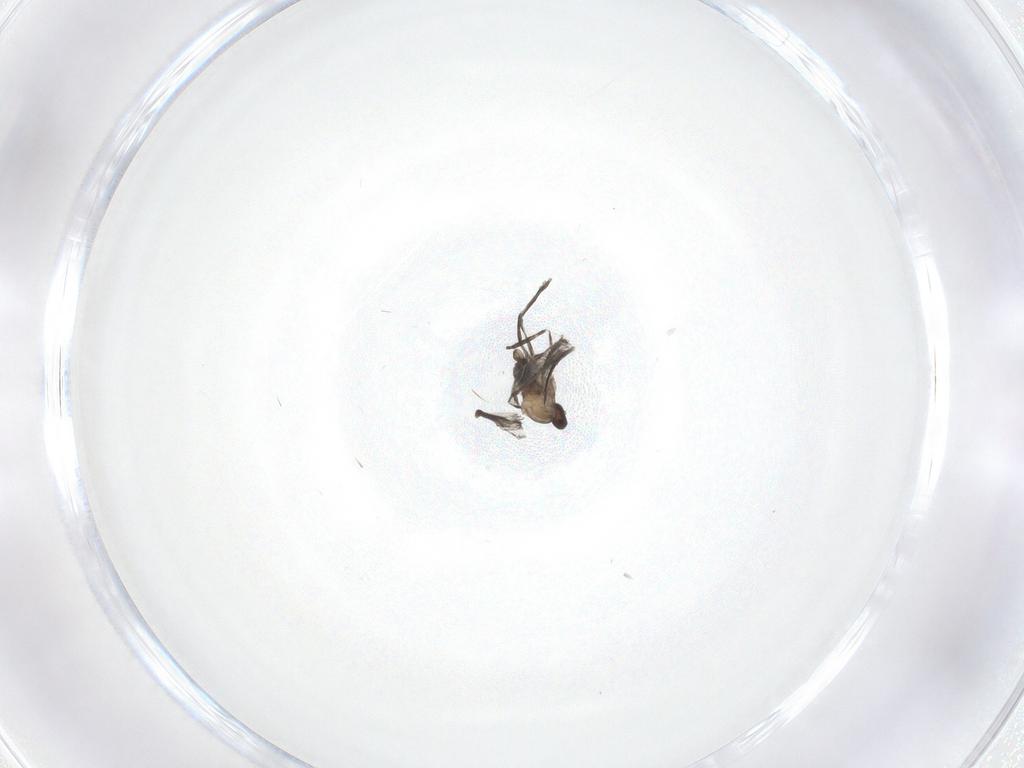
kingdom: Animalia
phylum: Arthropoda
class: Insecta
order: Diptera
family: Cecidomyiidae
